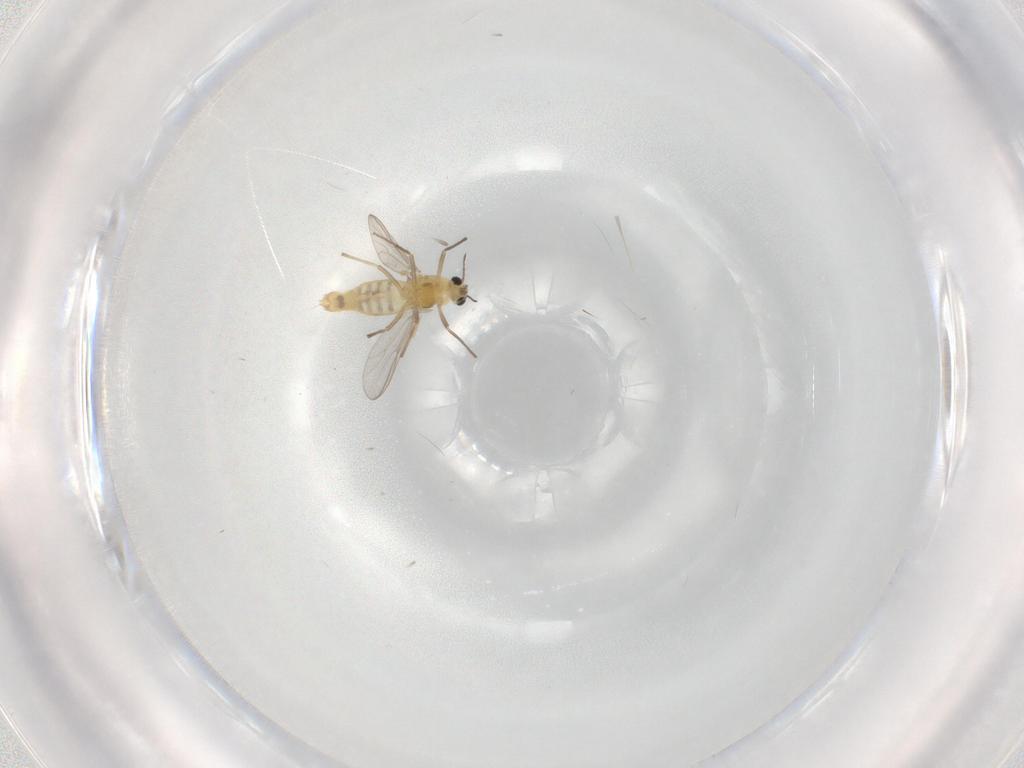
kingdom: Animalia
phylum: Arthropoda
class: Insecta
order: Diptera
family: Chironomidae
